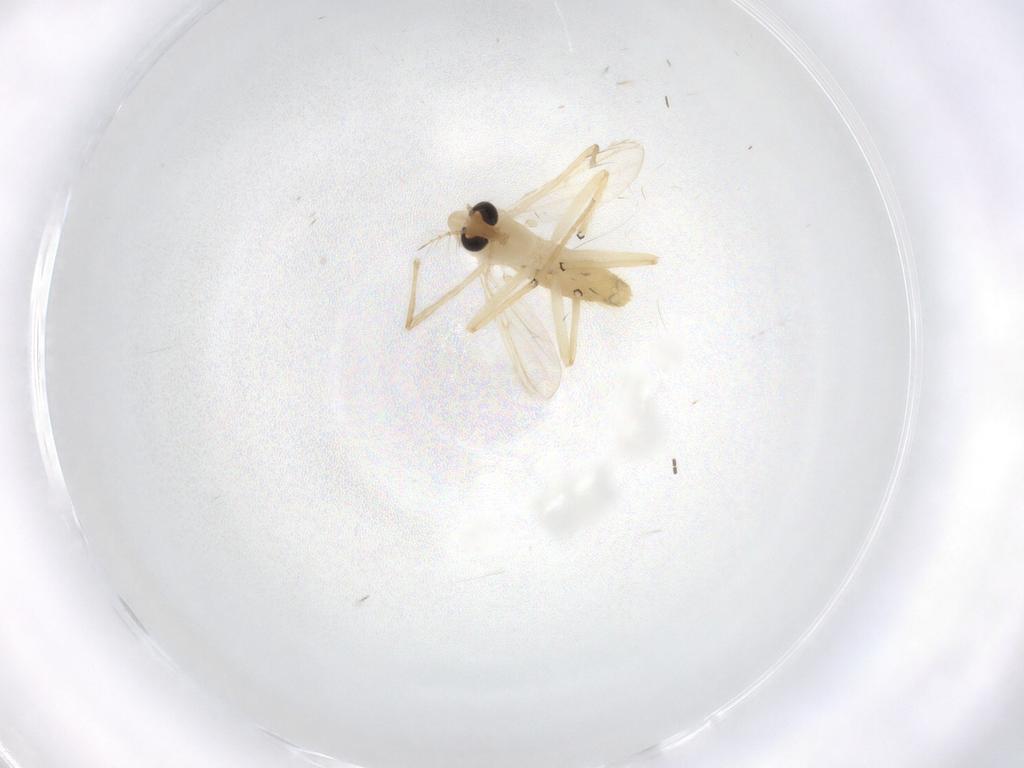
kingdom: Animalia
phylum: Arthropoda
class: Insecta
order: Diptera
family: Chironomidae
